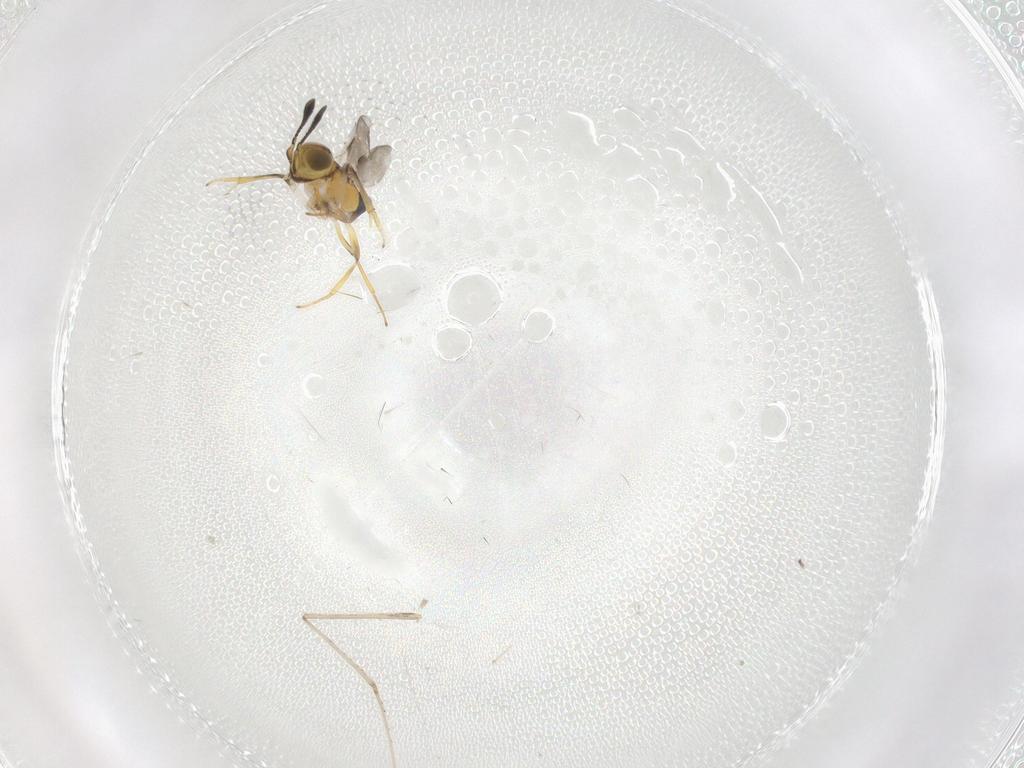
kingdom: Animalia
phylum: Arthropoda
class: Insecta
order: Diptera
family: Cecidomyiidae
